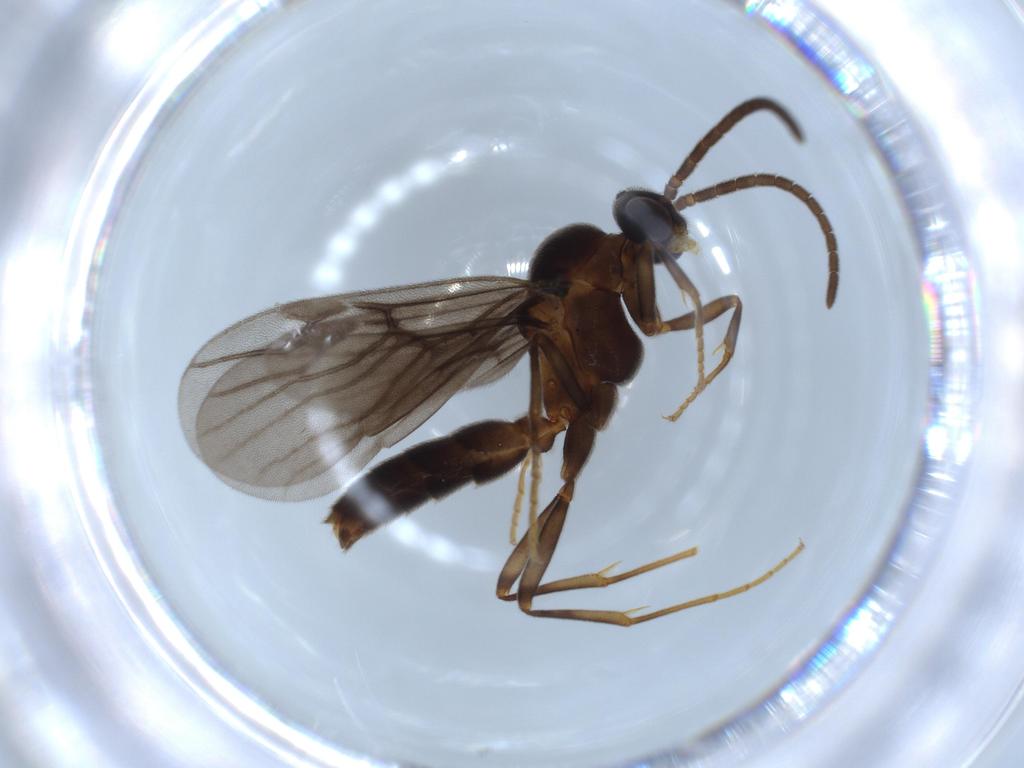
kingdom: Animalia
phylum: Arthropoda
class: Insecta
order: Hymenoptera
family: Formicidae
